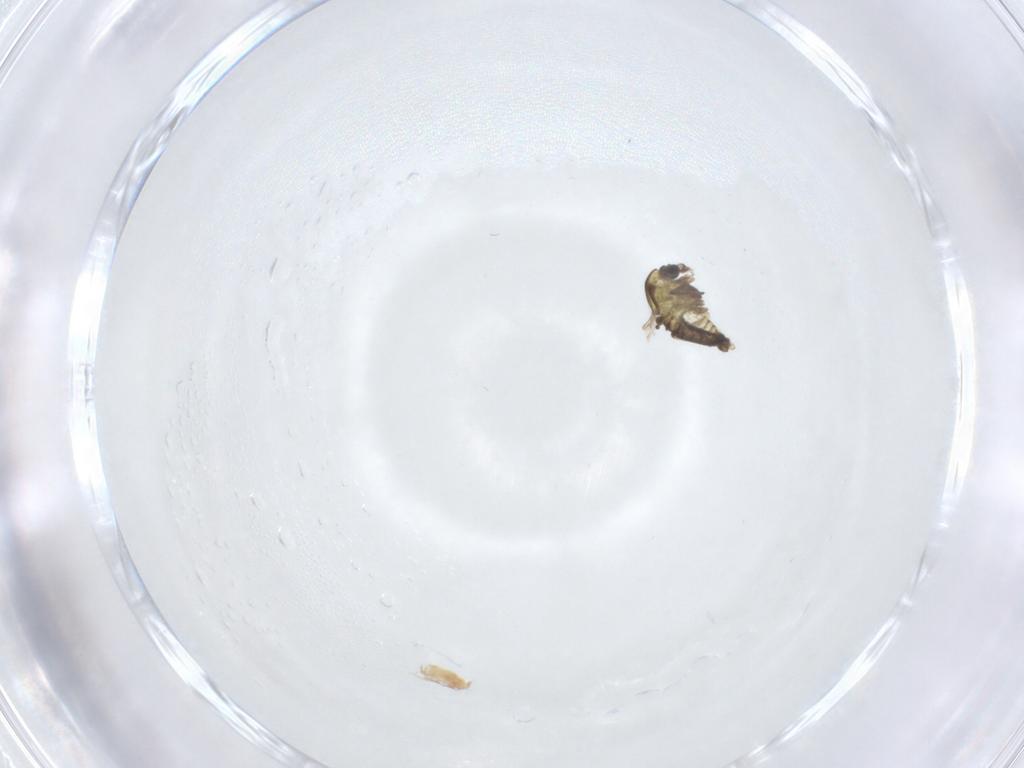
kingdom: Animalia
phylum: Arthropoda
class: Insecta
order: Diptera
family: Chironomidae
